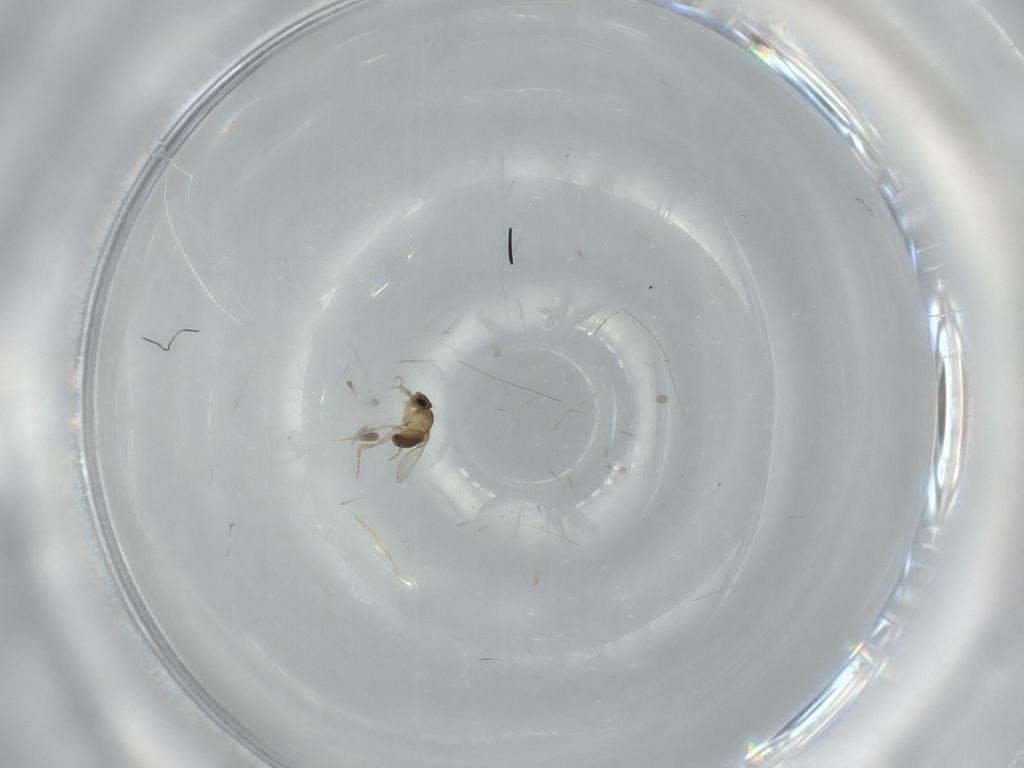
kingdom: Animalia
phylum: Arthropoda
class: Insecta
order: Diptera
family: Phoridae
